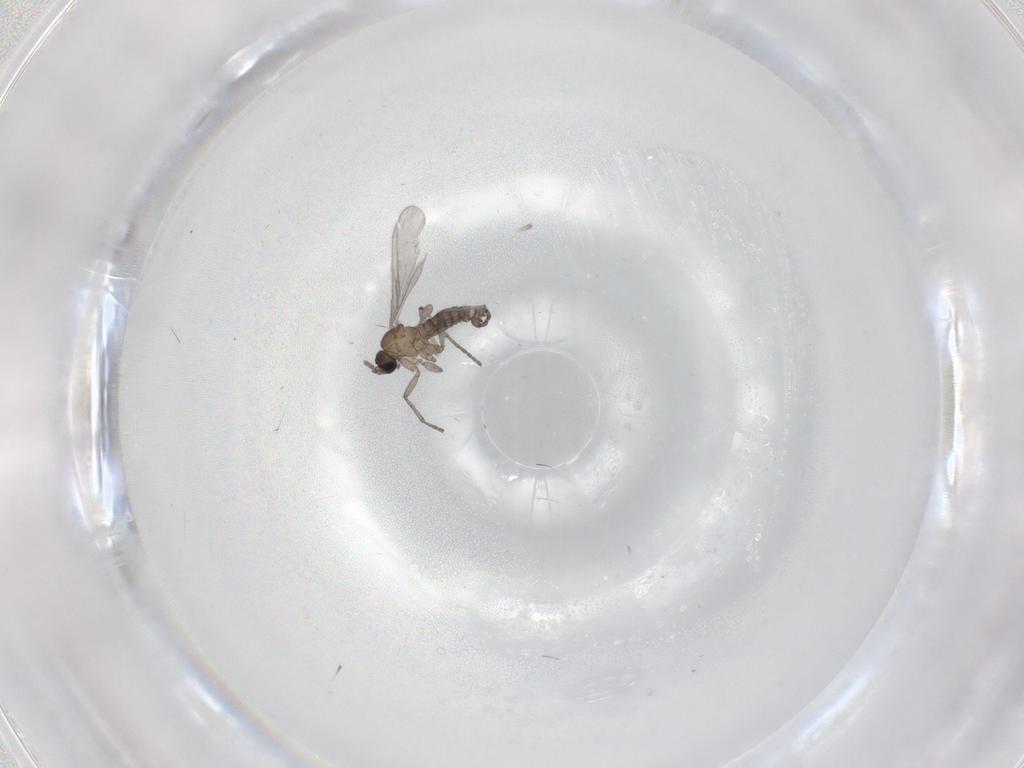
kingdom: Animalia
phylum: Arthropoda
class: Insecta
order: Diptera
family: Sciaridae
